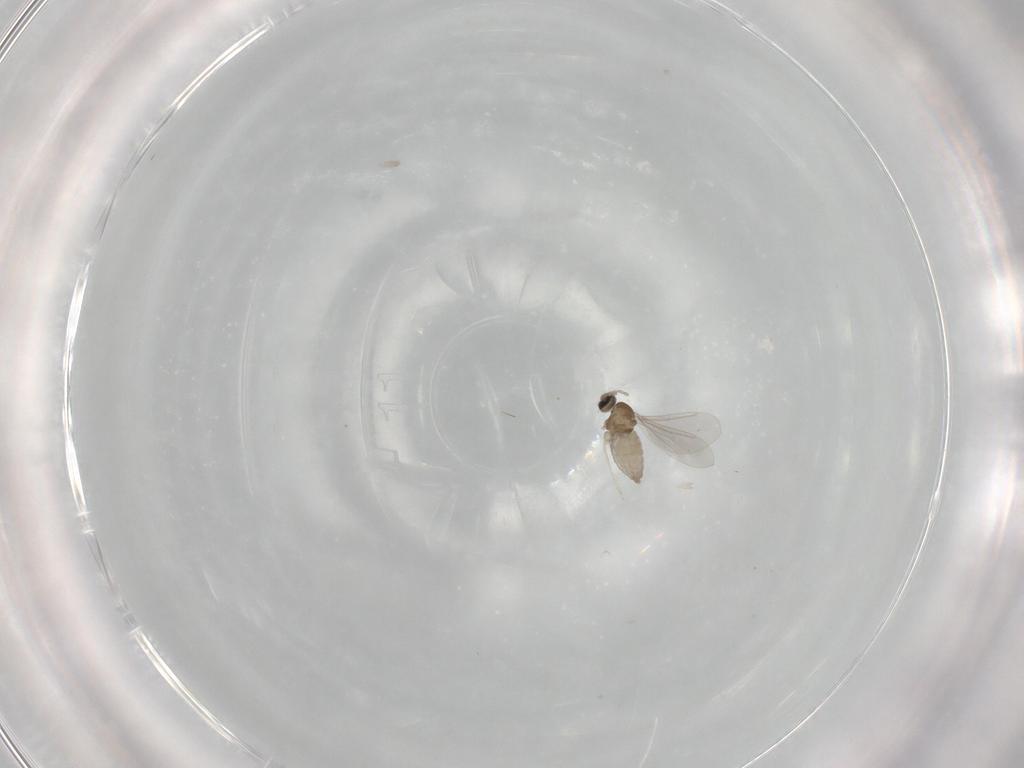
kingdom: Animalia
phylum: Arthropoda
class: Insecta
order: Diptera
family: Cecidomyiidae
